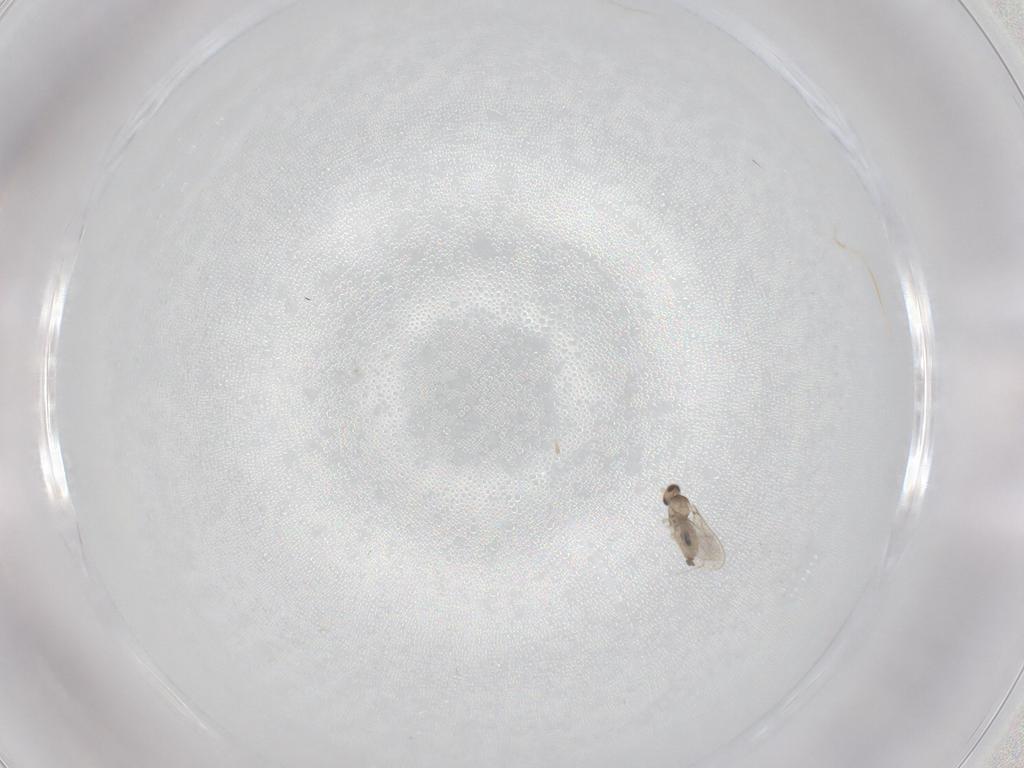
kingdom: Animalia
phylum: Arthropoda
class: Insecta
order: Diptera
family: Cecidomyiidae
